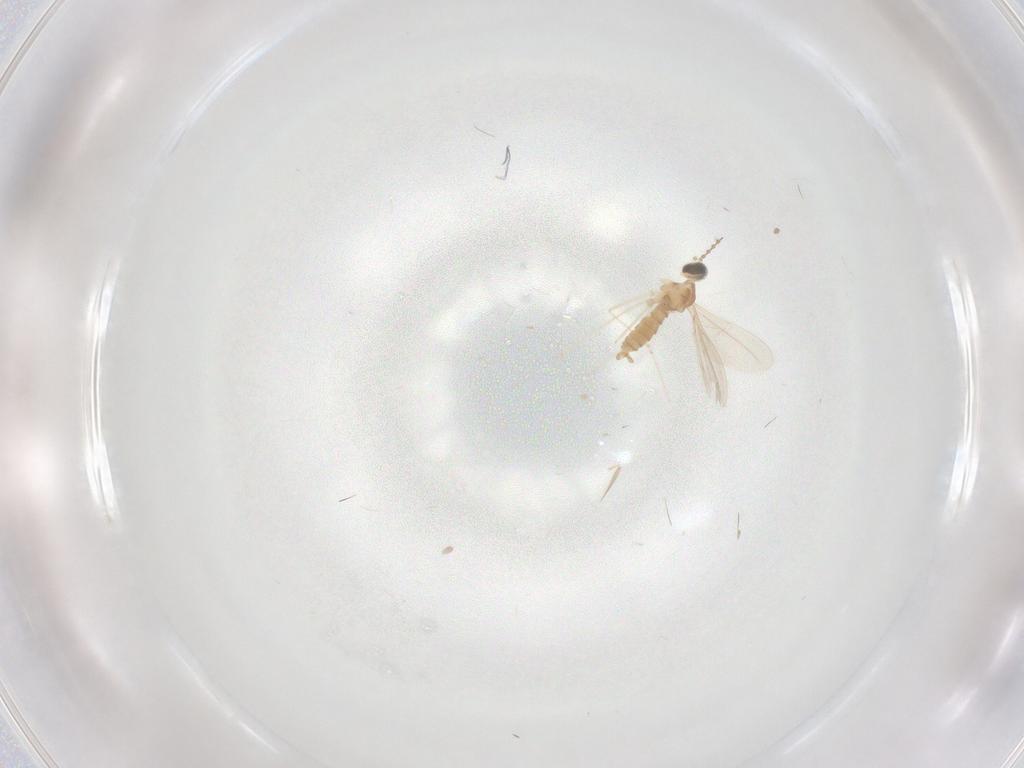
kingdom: Animalia
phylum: Arthropoda
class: Insecta
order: Diptera
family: Cecidomyiidae
